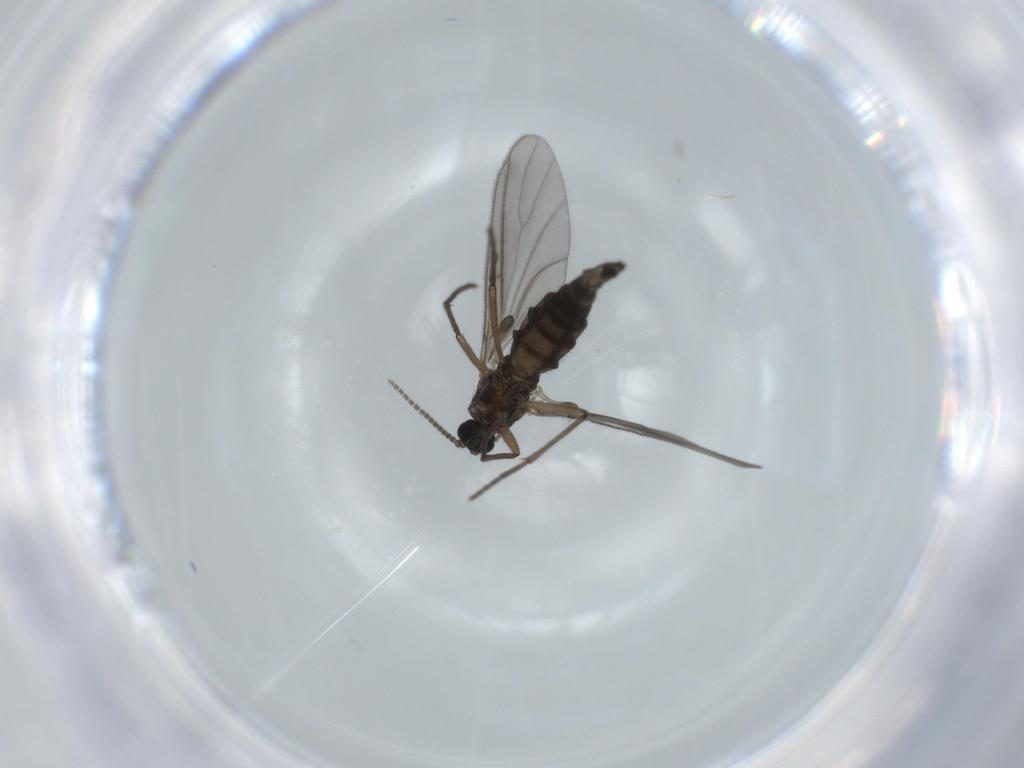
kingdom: Animalia
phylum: Arthropoda
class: Insecta
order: Diptera
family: Sciaridae
